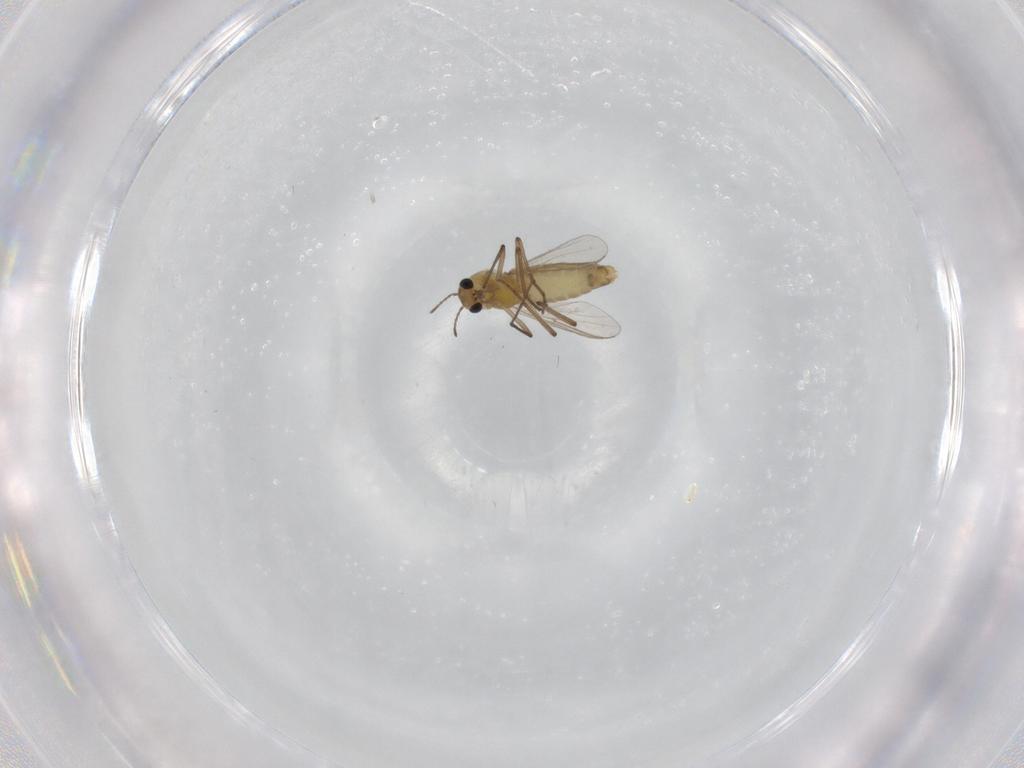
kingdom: Animalia
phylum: Arthropoda
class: Insecta
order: Diptera
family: Chironomidae
